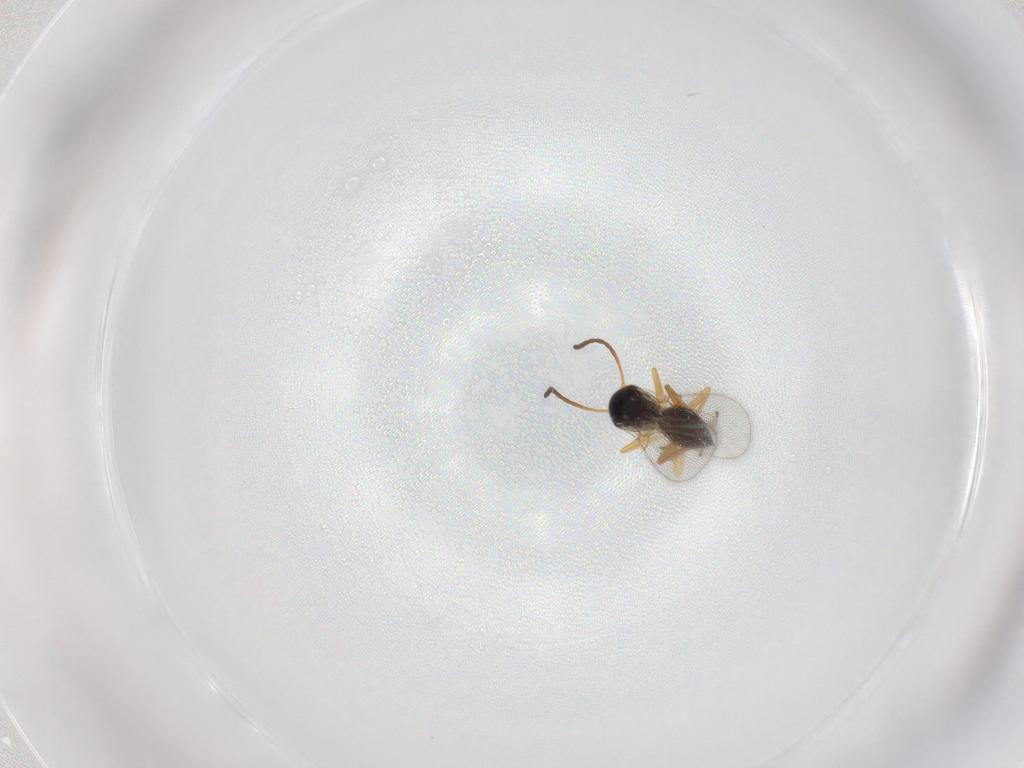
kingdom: Animalia
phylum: Arthropoda
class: Insecta
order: Hymenoptera
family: Figitidae
